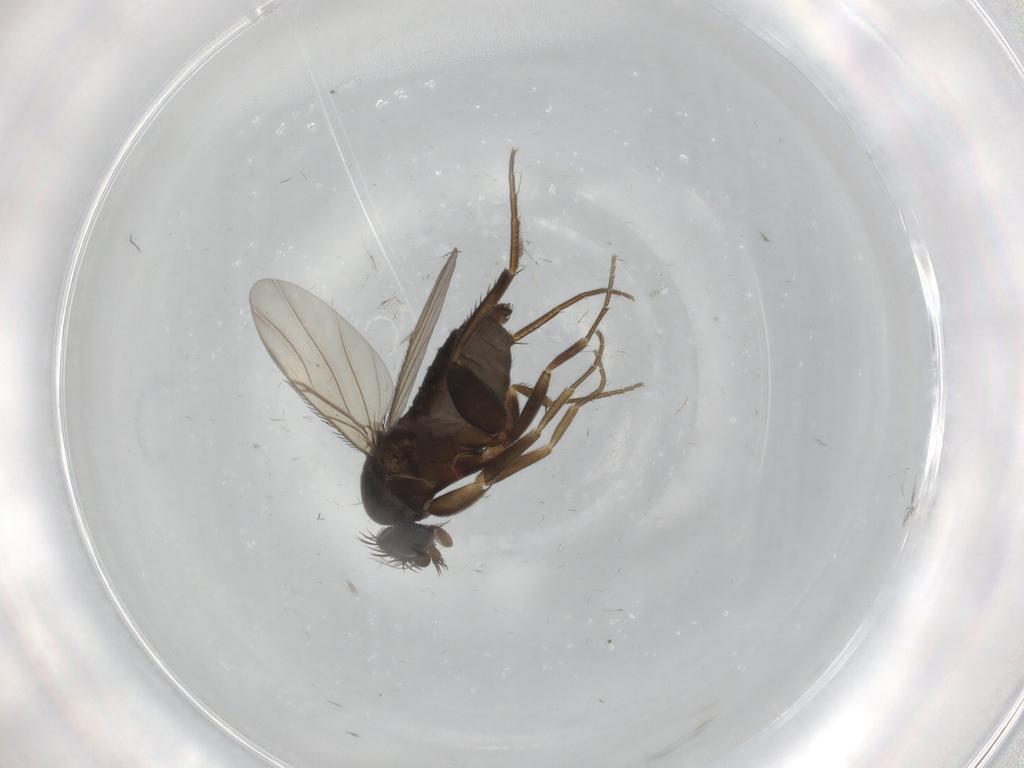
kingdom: Animalia
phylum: Arthropoda
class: Insecta
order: Diptera
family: Phoridae
